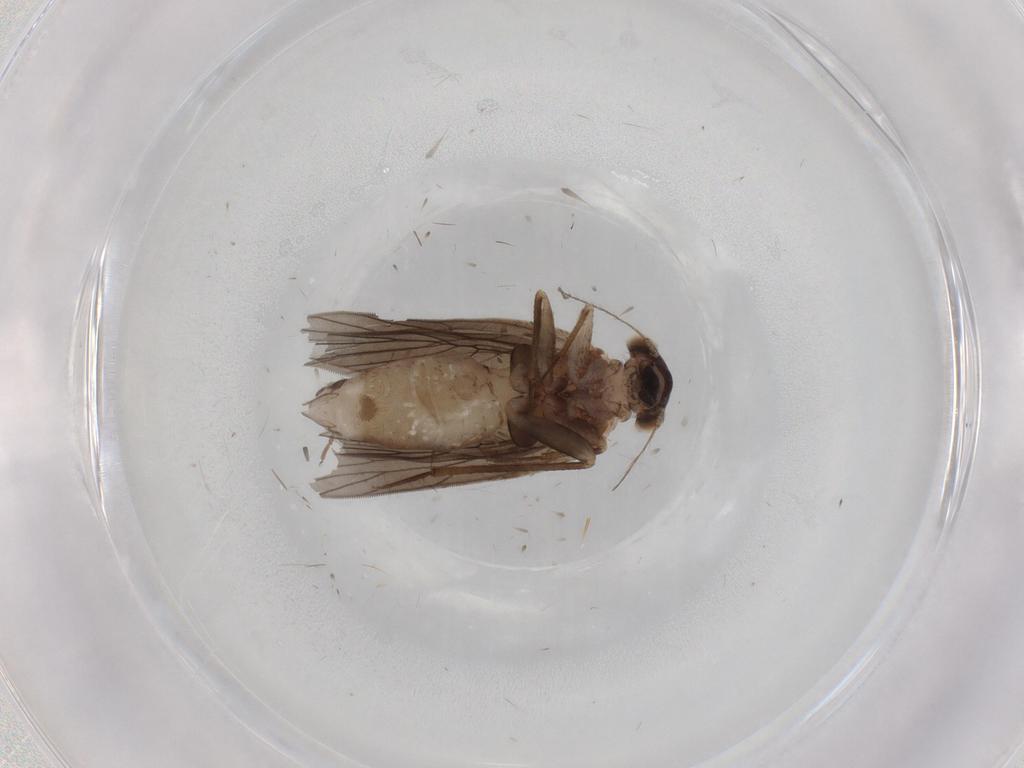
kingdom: Animalia
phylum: Arthropoda
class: Insecta
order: Psocodea
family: Lepidopsocidae
